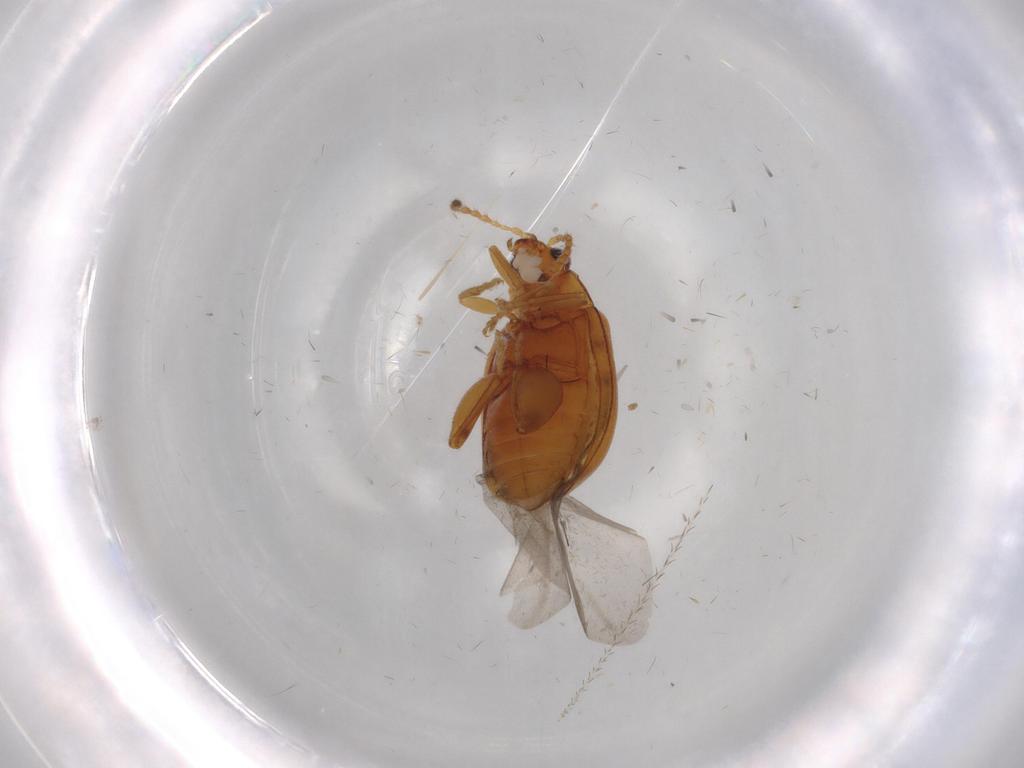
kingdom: Animalia
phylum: Arthropoda
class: Insecta
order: Coleoptera
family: Chrysomelidae
